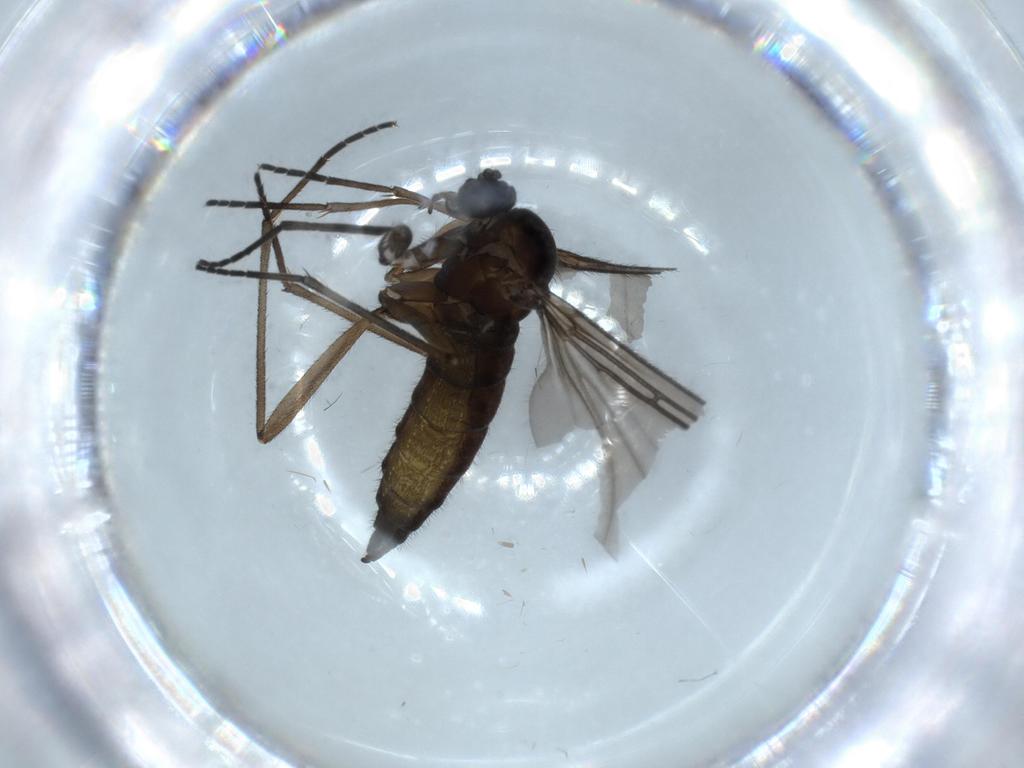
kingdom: Animalia
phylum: Arthropoda
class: Insecta
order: Diptera
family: Sciaridae
